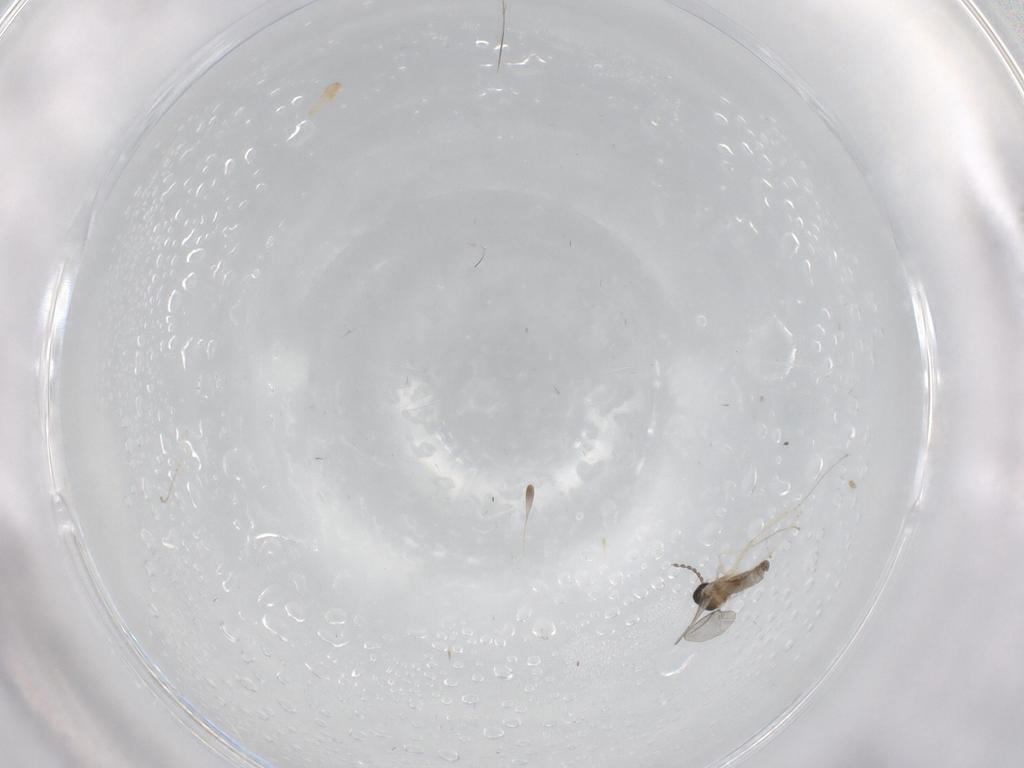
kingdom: Animalia
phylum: Arthropoda
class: Insecta
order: Diptera
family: Cecidomyiidae
